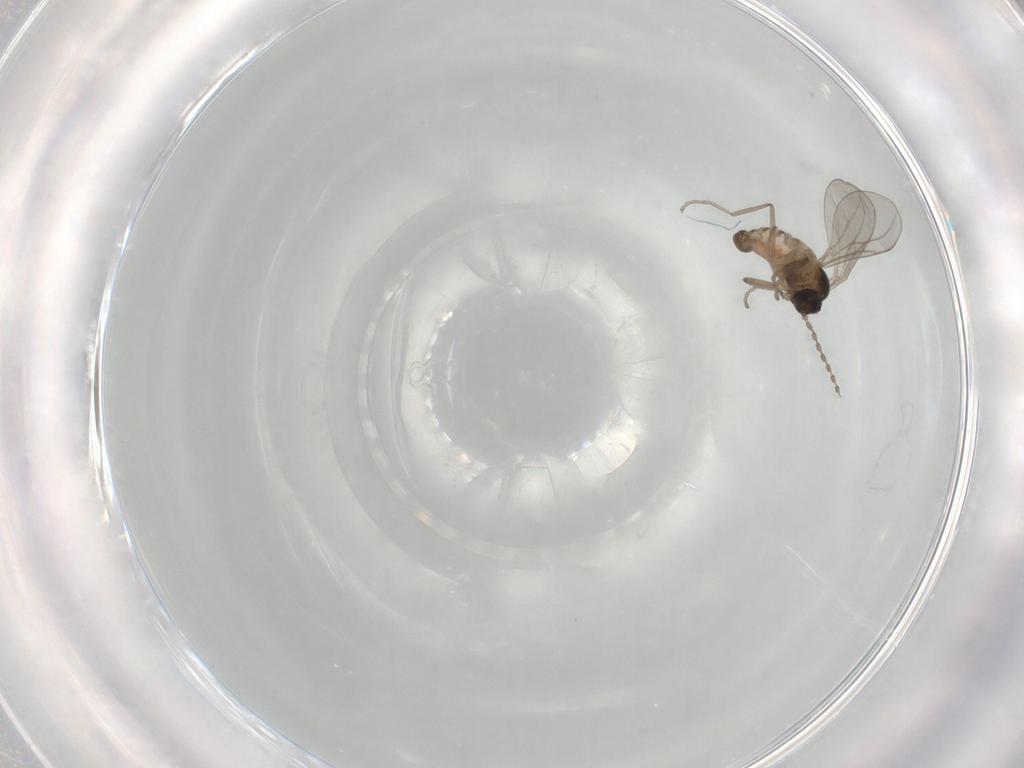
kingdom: Animalia
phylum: Arthropoda
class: Insecta
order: Diptera
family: Cecidomyiidae
